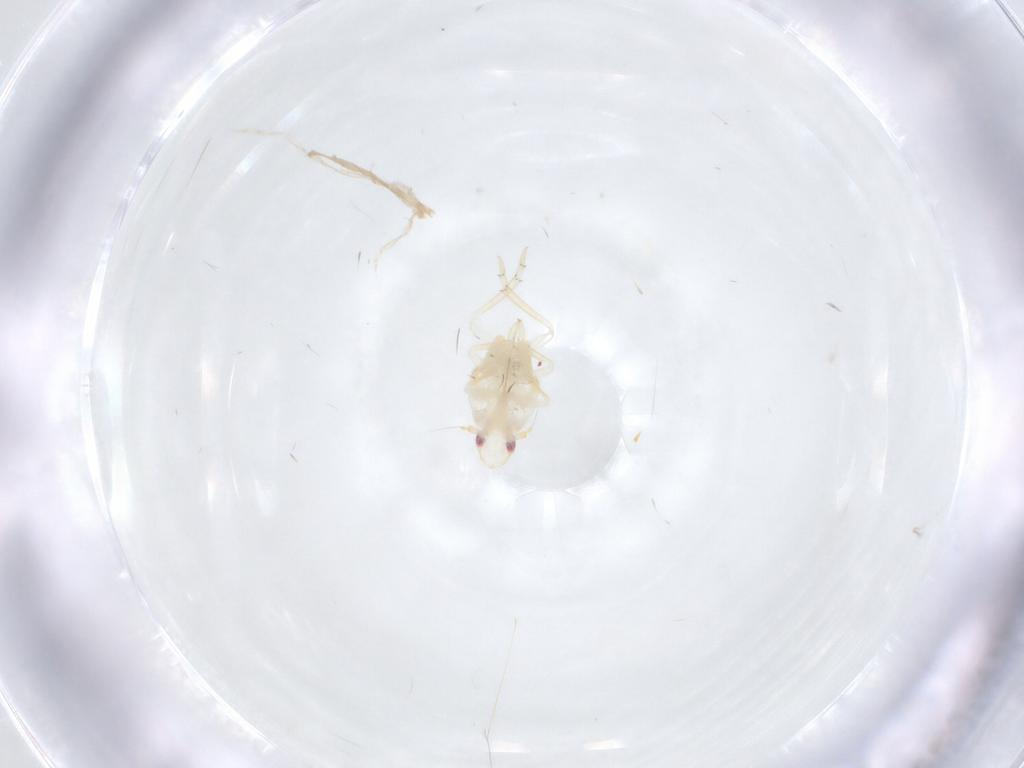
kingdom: Animalia
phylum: Arthropoda
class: Insecta
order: Hemiptera
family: Flatidae
